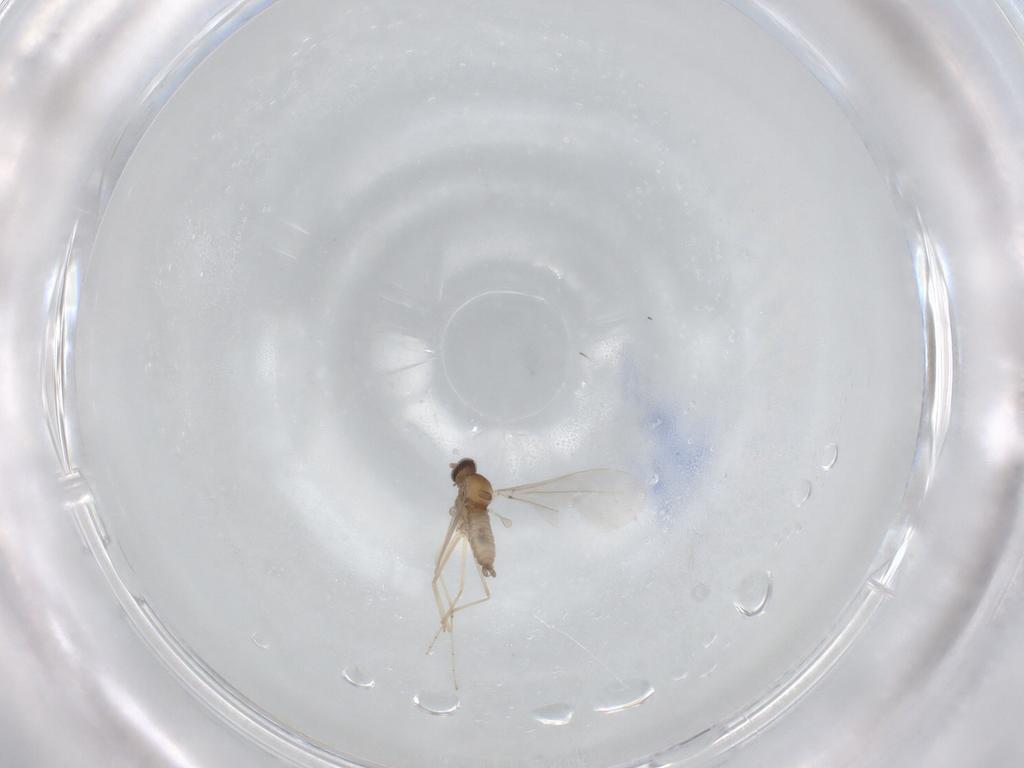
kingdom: Animalia
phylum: Arthropoda
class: Insecta
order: Diptera
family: Cecidomyiidae
